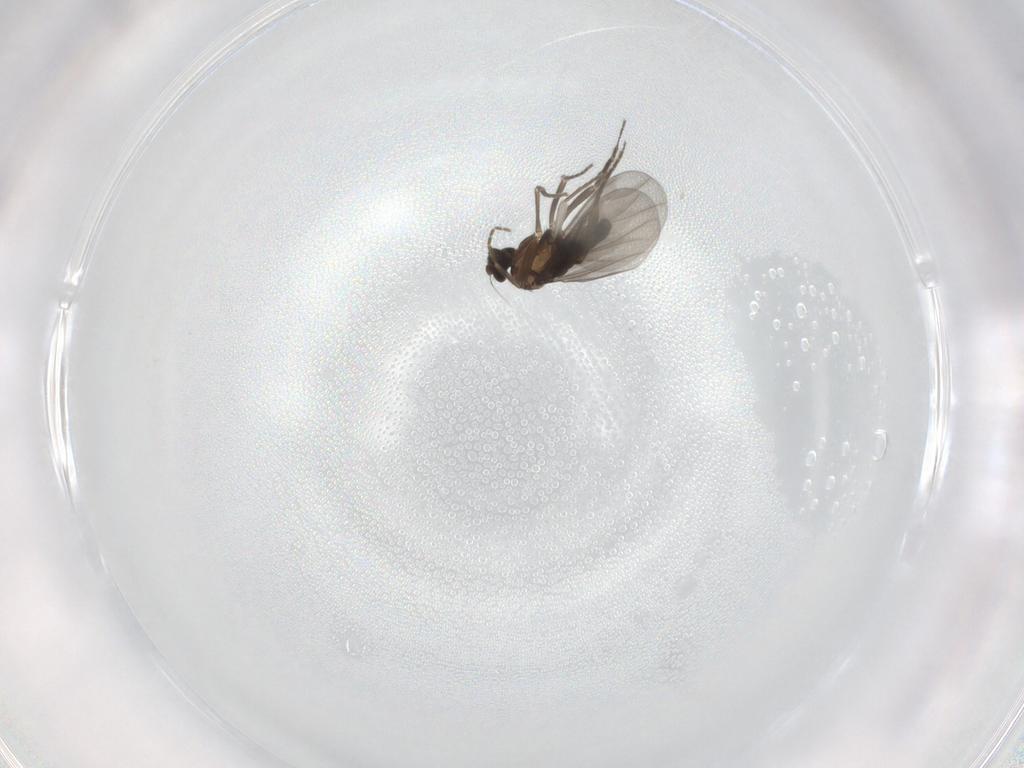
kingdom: Animalia
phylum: Arthropoda
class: Insecta
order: Diptera
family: Phoridae
